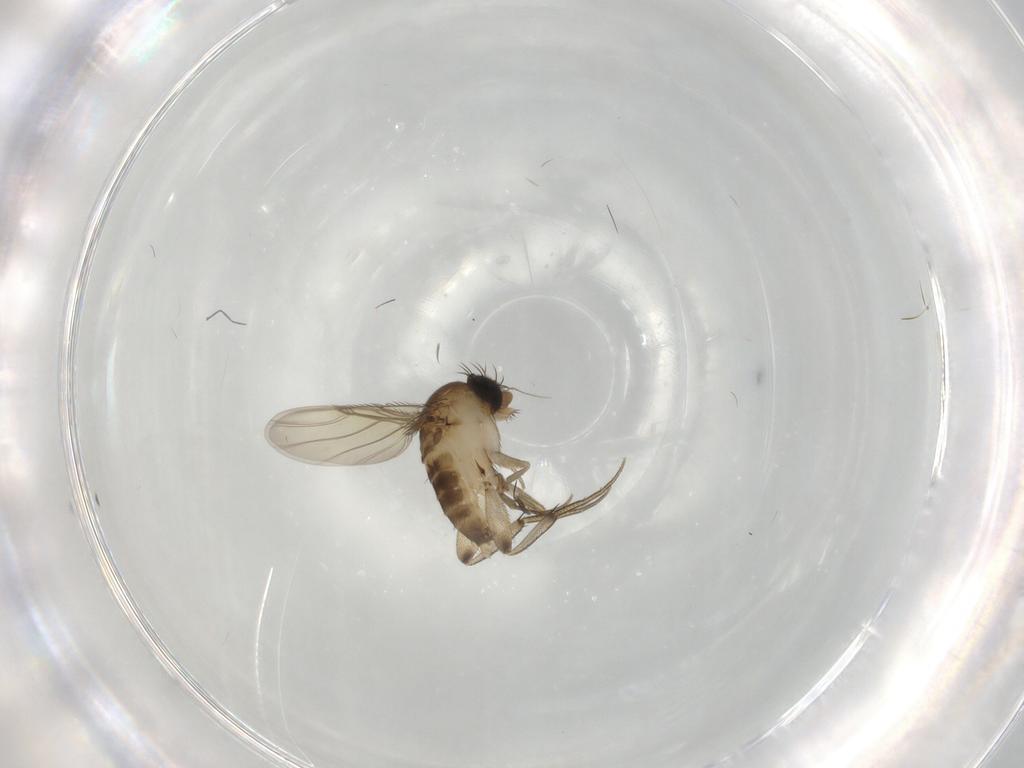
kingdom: Animalia
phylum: Arthropoda
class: Insecta
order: Diptera
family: Phoridae
